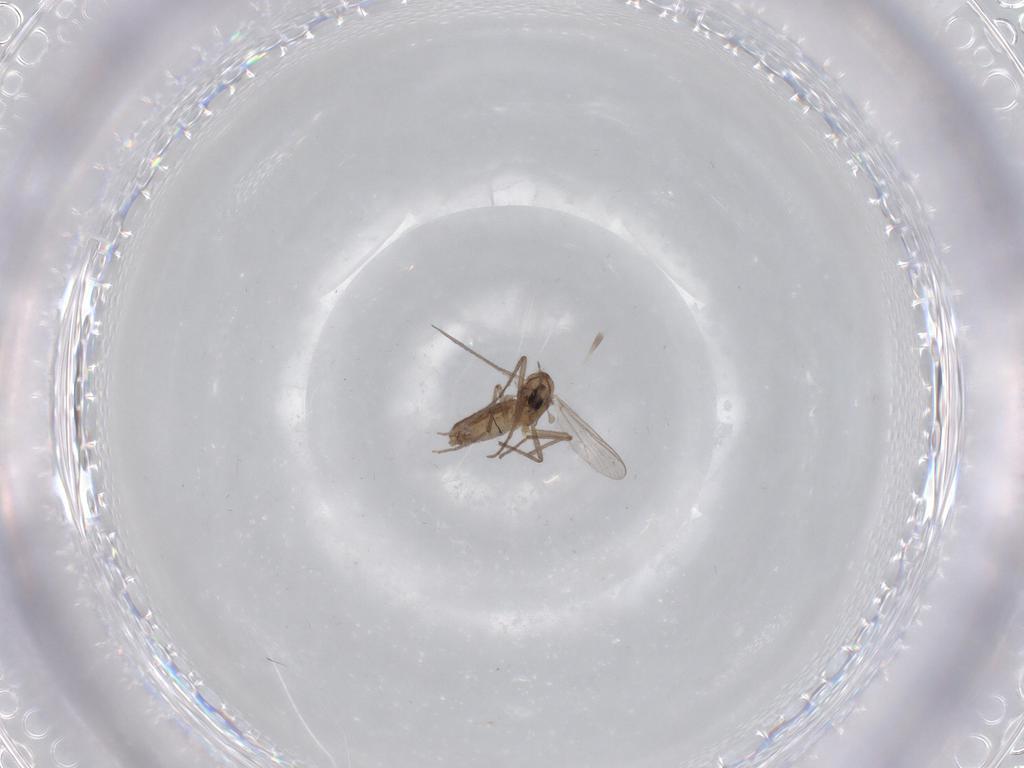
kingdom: Animalia
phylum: Arthropoda
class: Insecta
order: Diptera
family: Chironomidae
